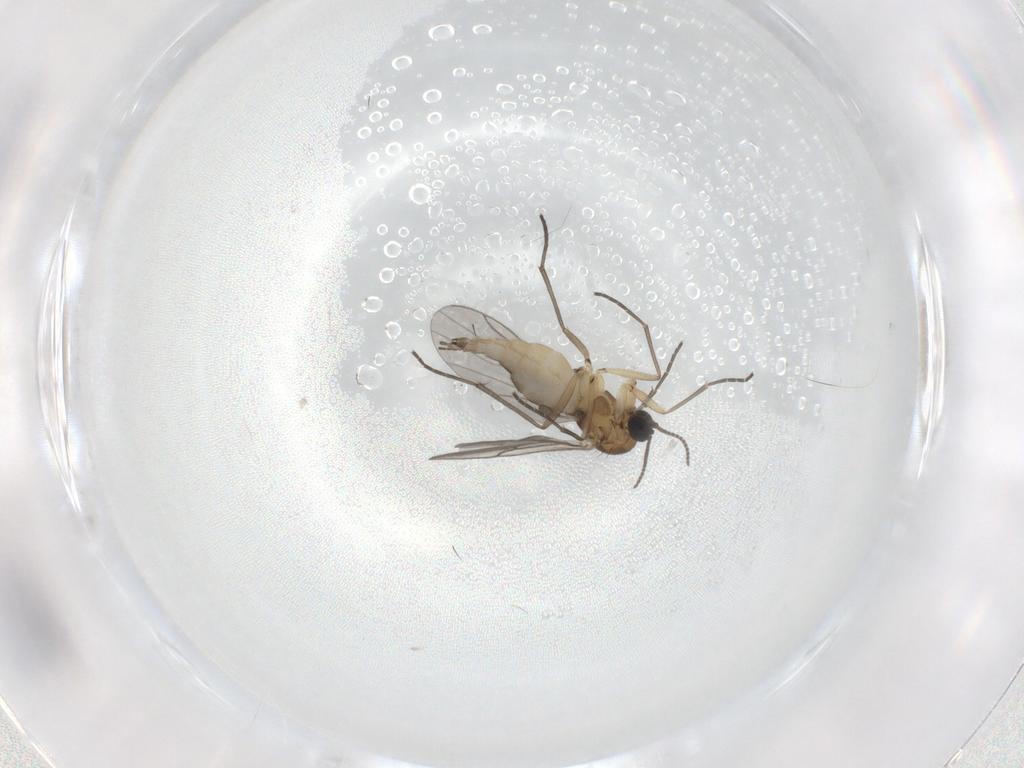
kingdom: Animalia
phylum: Arthropoda
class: Insecta
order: Diptera
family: Sciaridae
